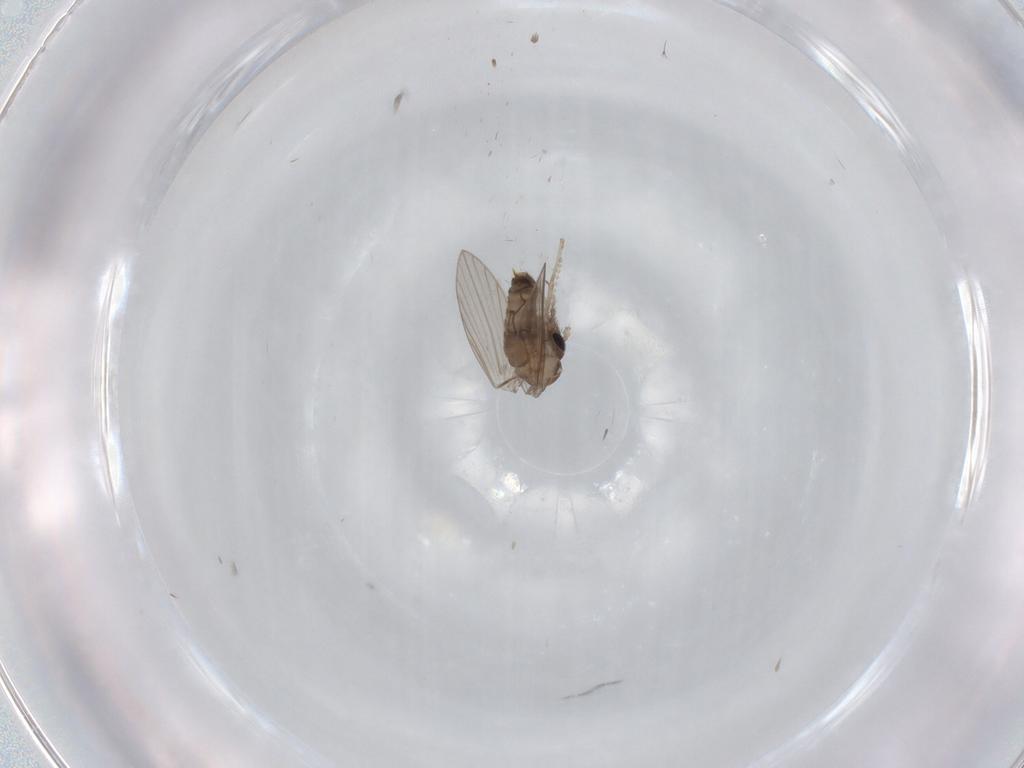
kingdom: Animalia
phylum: Arthropoda
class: Insecta
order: Diptera
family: Psychodidae
